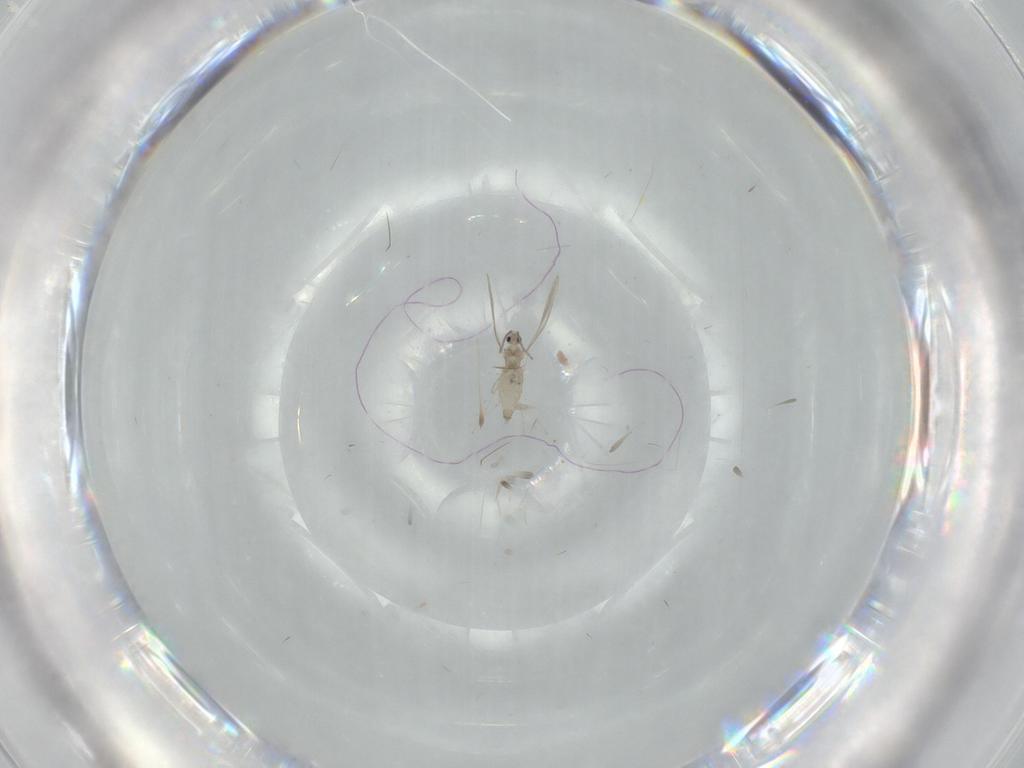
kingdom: Animalia
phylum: Arthropoda
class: Insecta
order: Diptera
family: Cecidomyiidae
